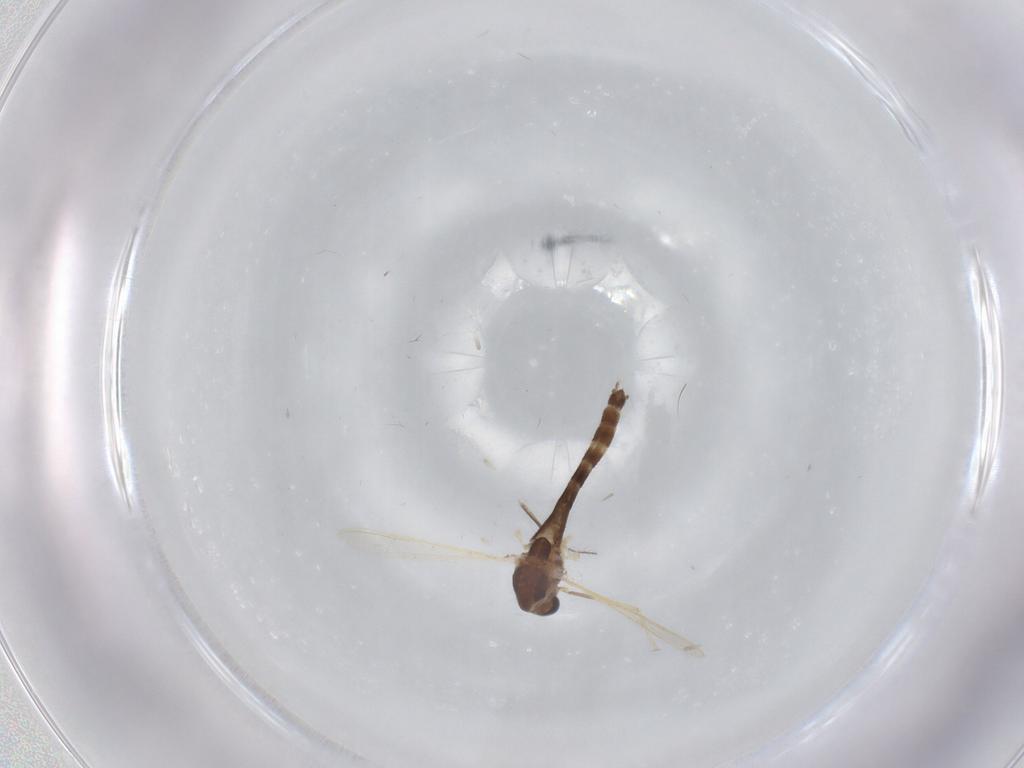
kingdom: Animalia
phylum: Arthropoda
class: Insecta
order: Diptera
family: Chironomidae
